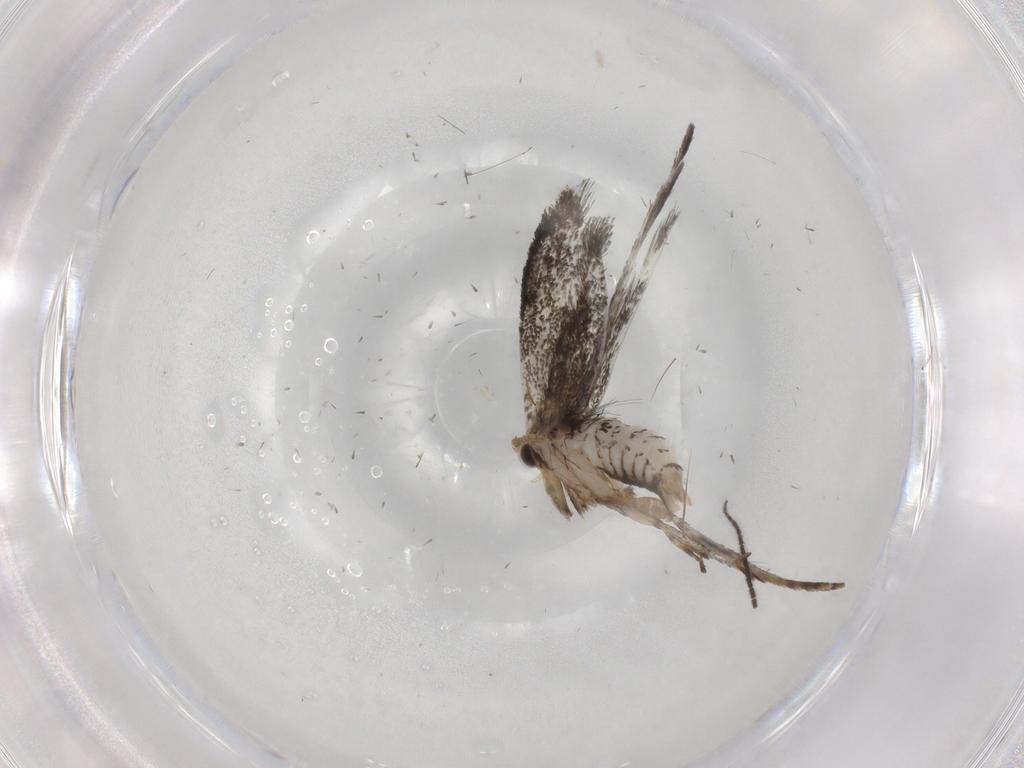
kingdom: Animalia
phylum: Arthropoda
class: Insecta
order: Lepidoptera
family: Tineidae
